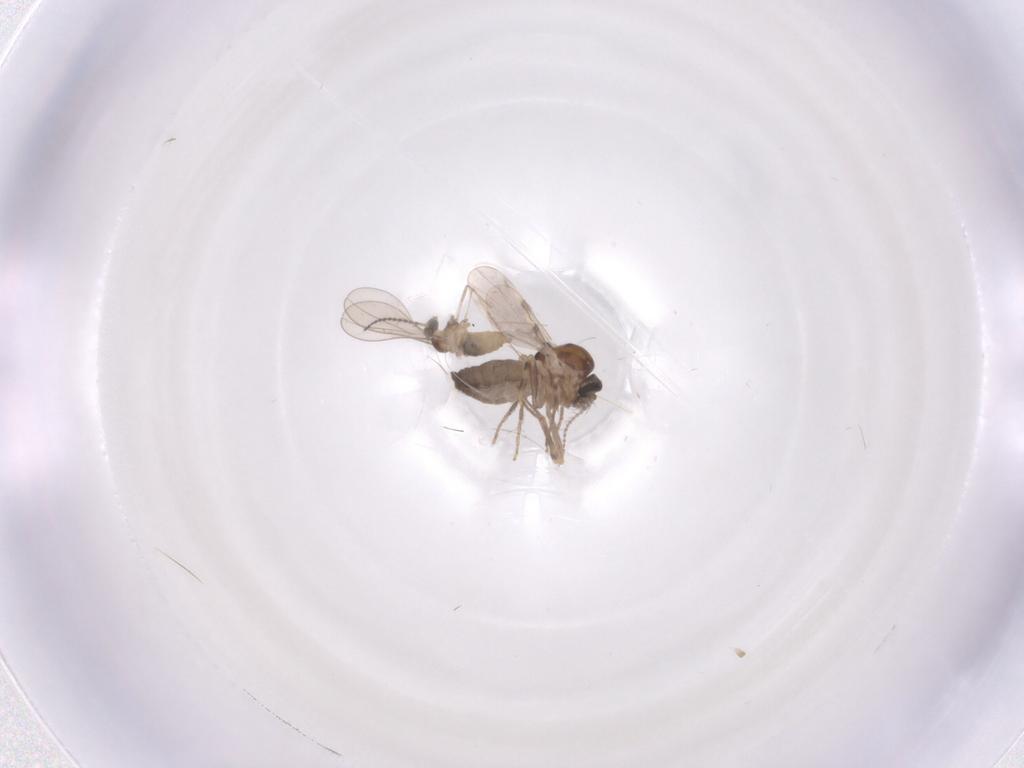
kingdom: Animalia
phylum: Arthropoda
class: Insecta
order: Diptera
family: Ceratopogonidae
